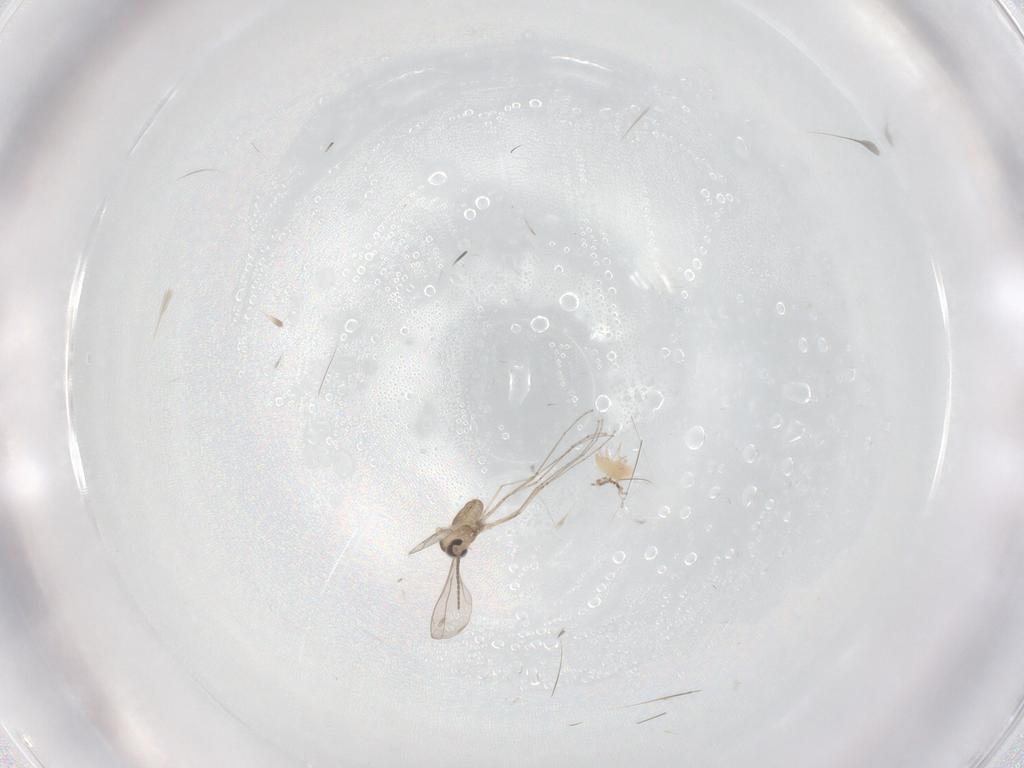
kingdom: Animalia
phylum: Arthropoda
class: Insecta
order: Diptera
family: Cecidomyiidae
